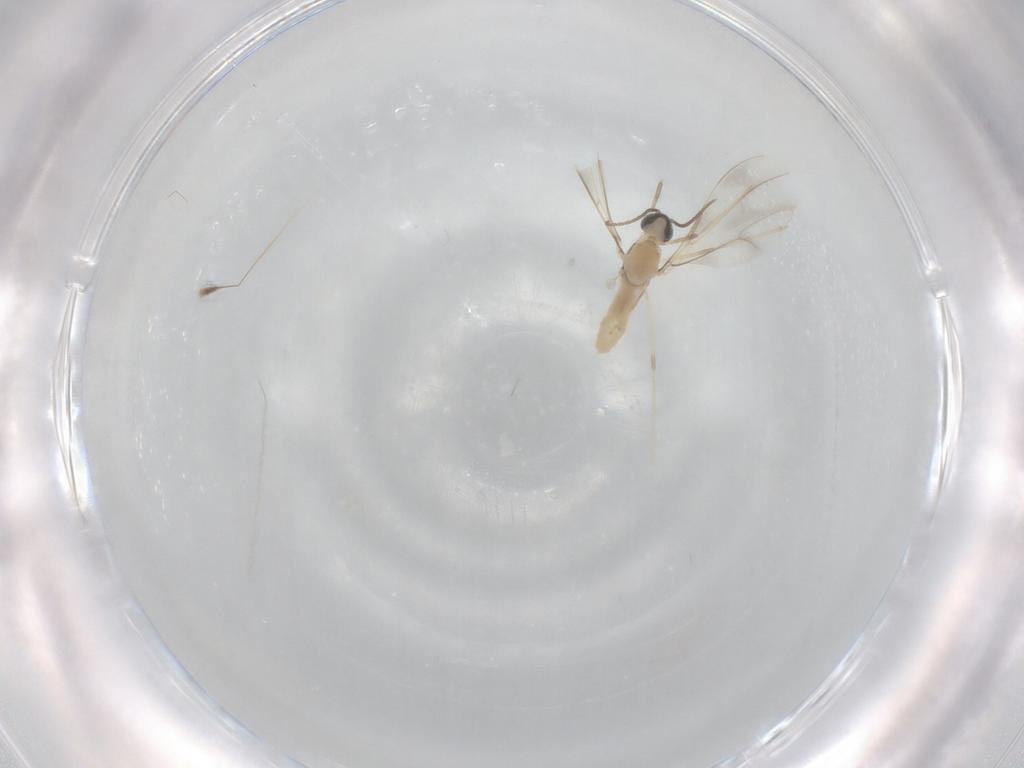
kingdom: Animalia
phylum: Arthropoda
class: Insecta
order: Diptera
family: Cecidomyiidae
